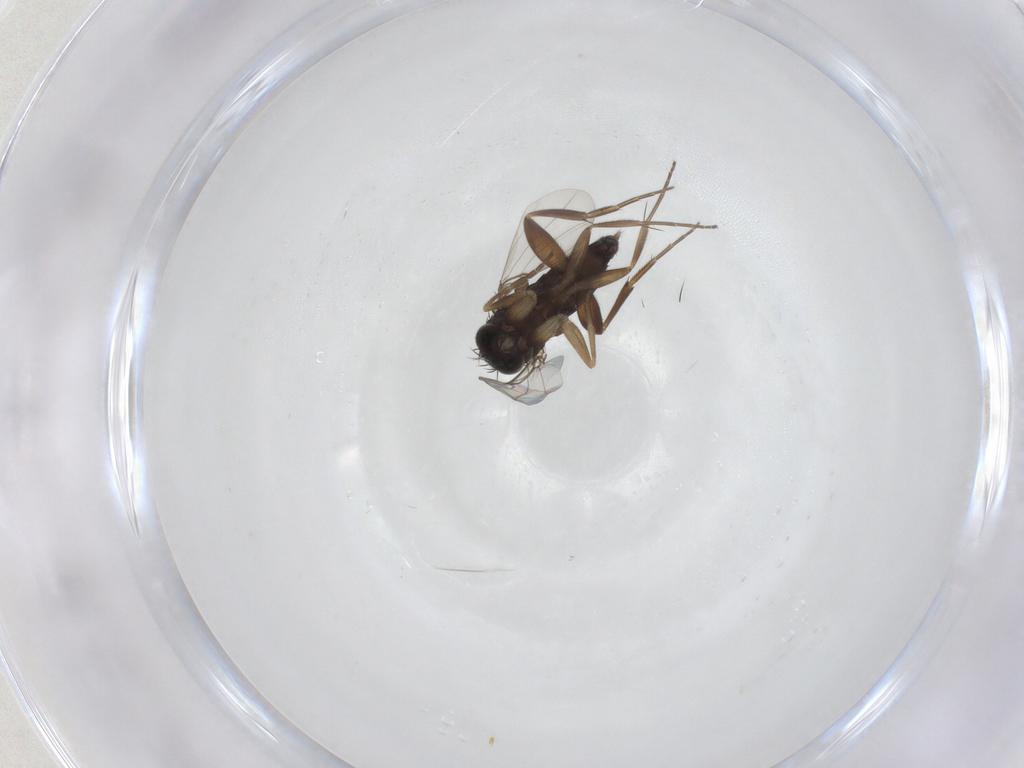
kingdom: Animalia
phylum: Arthropoda
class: Insecta
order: Diptera
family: Phoridae
